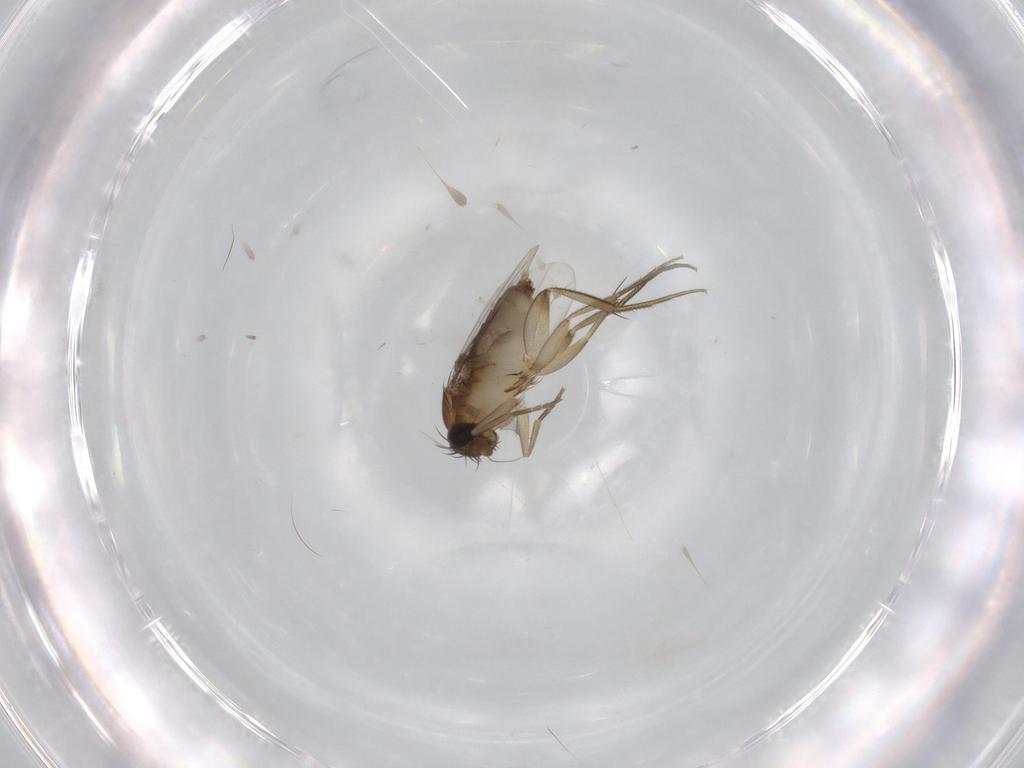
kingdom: Animalia
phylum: Arthropoda
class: Insecta
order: Diptera
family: Phoridae
